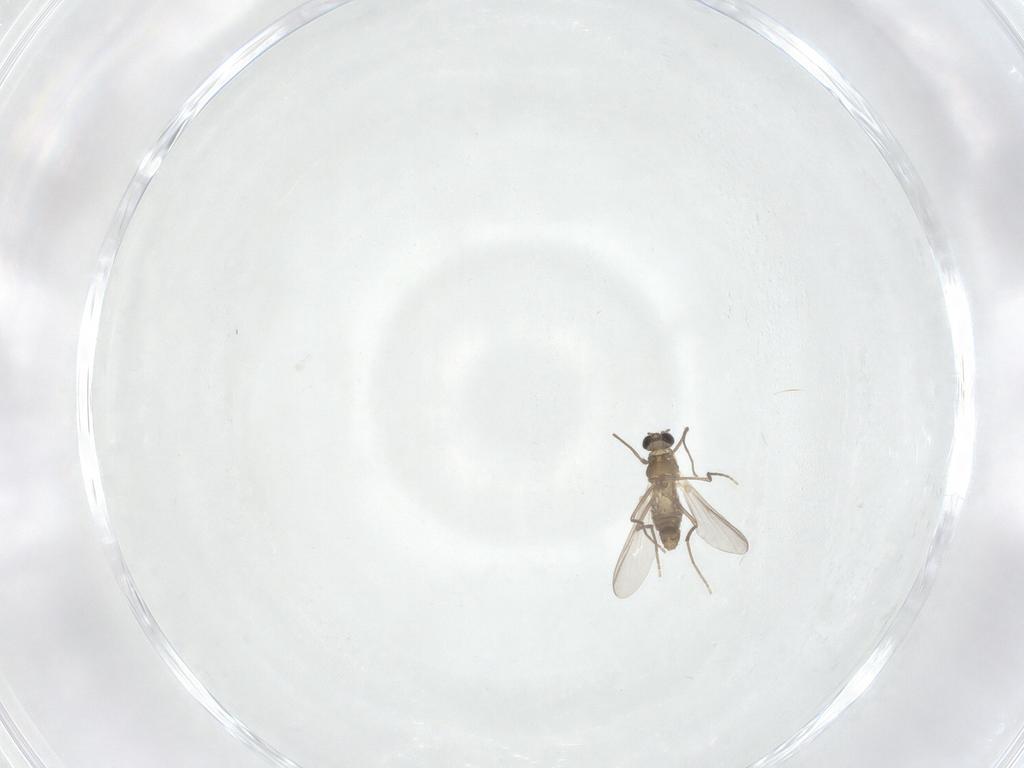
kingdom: Animalia
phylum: Arthropoda
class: Insecta
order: Diptera
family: Chironomidae
